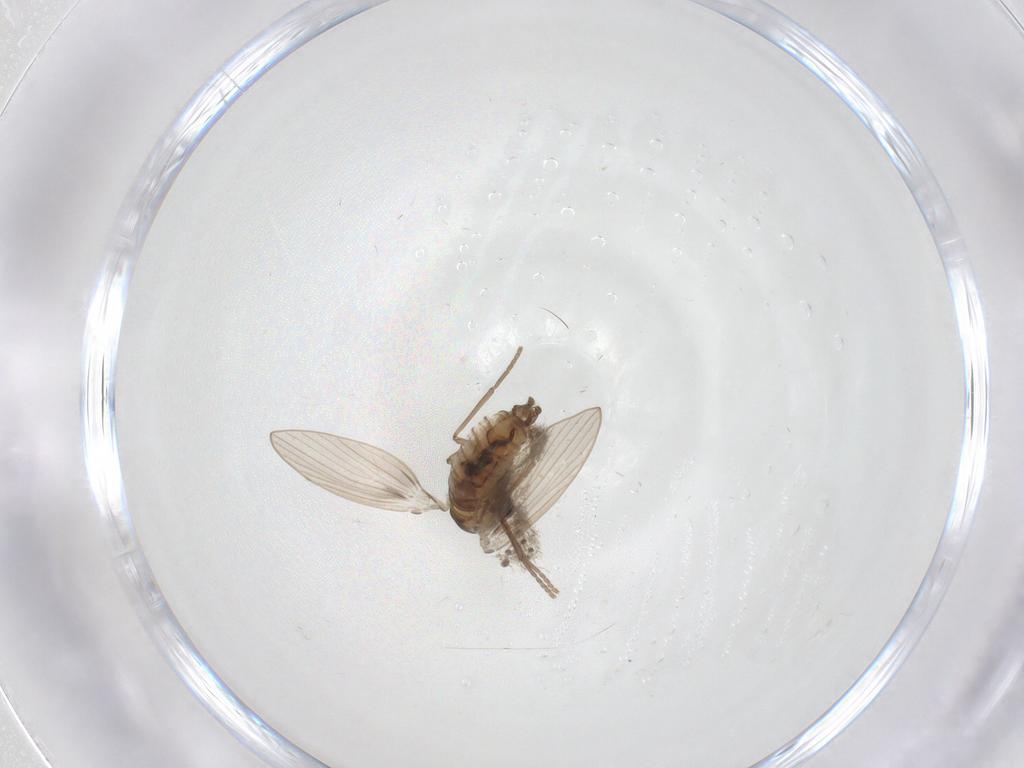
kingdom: Animalia
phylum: Arthropoda
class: Insecta
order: Diptera
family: Psychodidae
